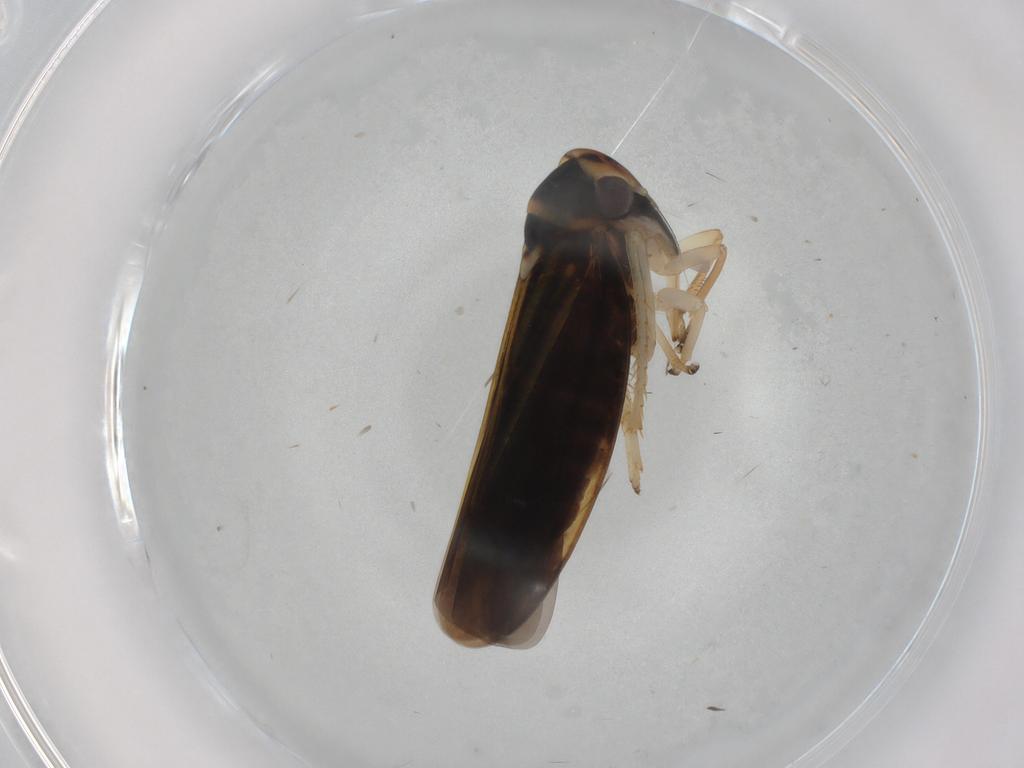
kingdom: Animalia
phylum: Arthropoda
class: Insecta
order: Hemiptera
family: Cicadellidae
